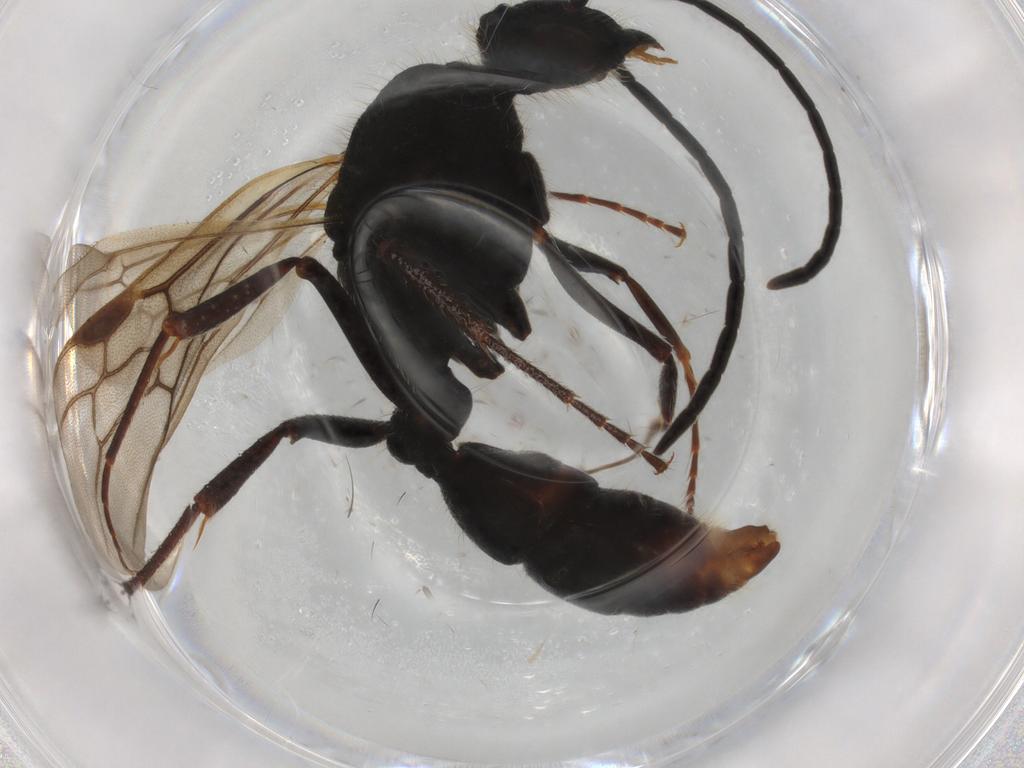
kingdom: Animalia
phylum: Arthropoda
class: Insecta
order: Hymenoptera
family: Formicidae
